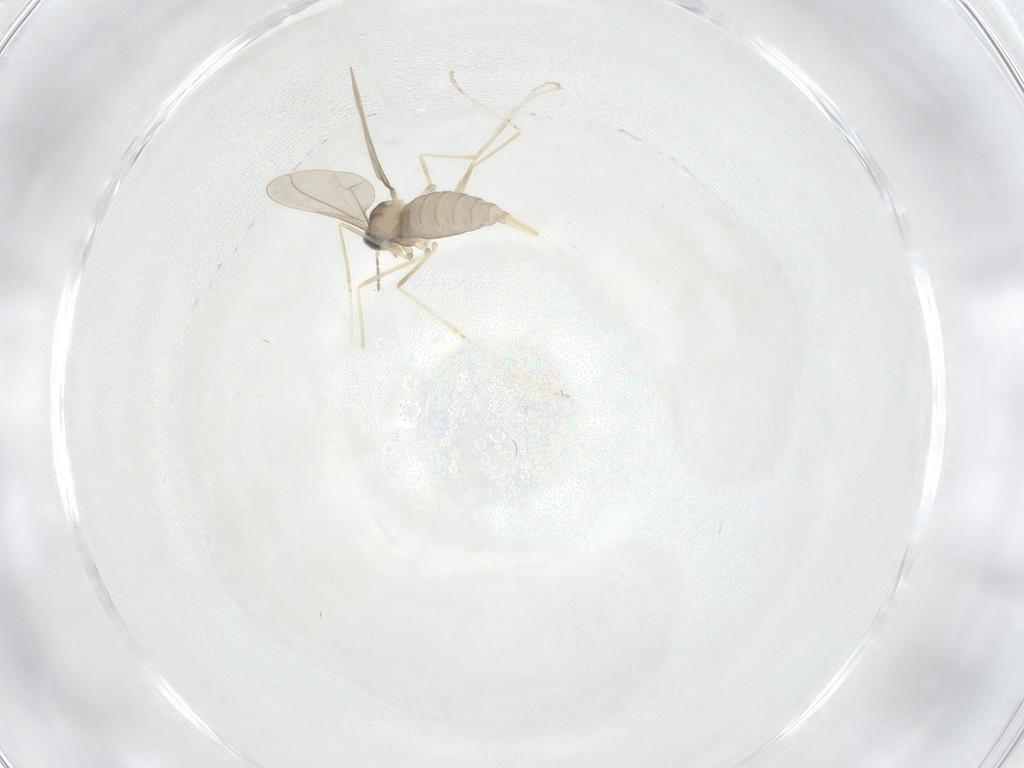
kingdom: Animalia
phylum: Arthropoda
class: Insecta
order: Diptera
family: Cecidomyiidae
